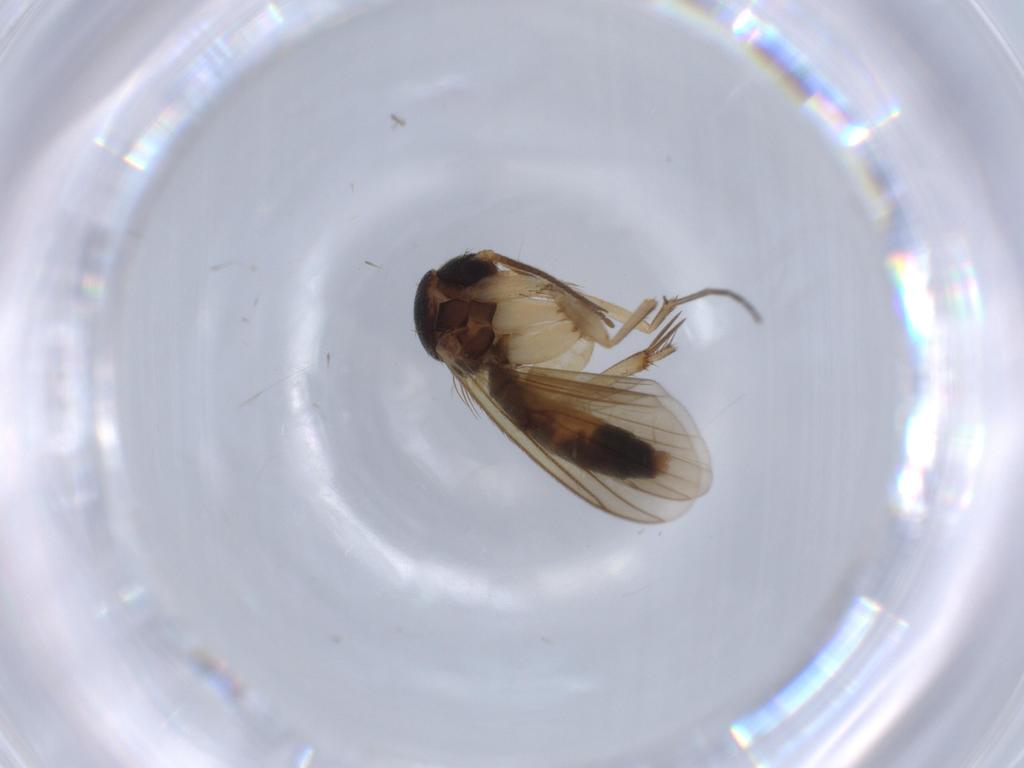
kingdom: Animalia
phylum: Arthropoda
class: Insecta
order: Diptera
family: Mycetophilidae
